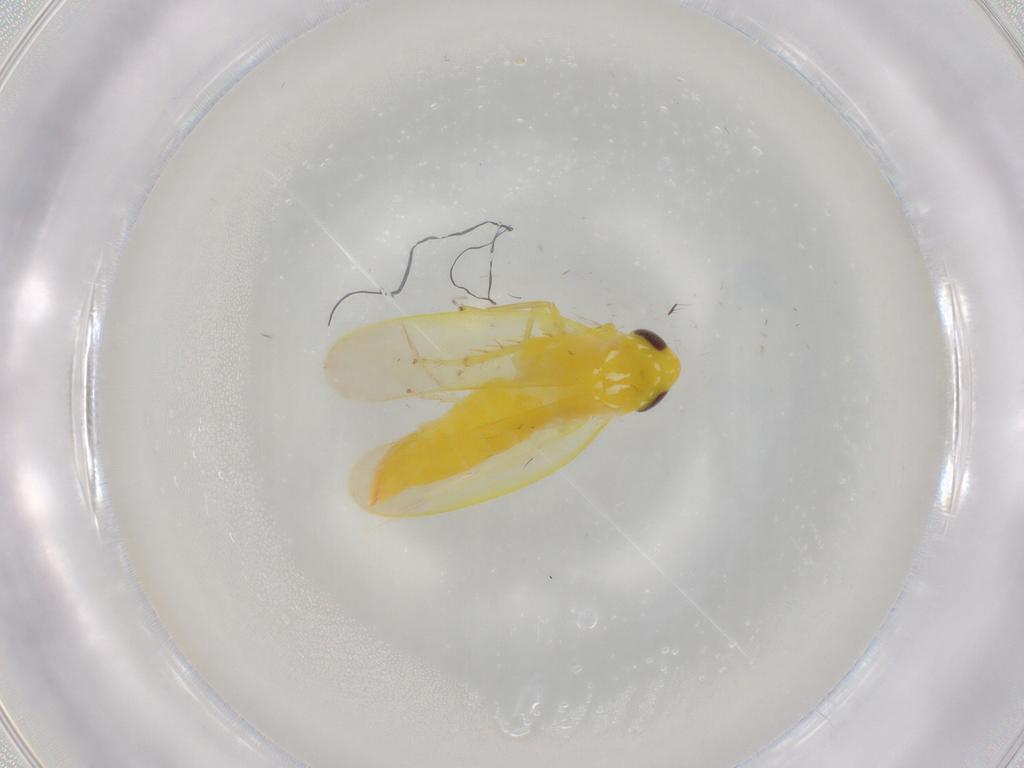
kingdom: Animalia
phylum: Arthropoda
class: Insecta
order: Hemiptera
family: Cicadellidae
